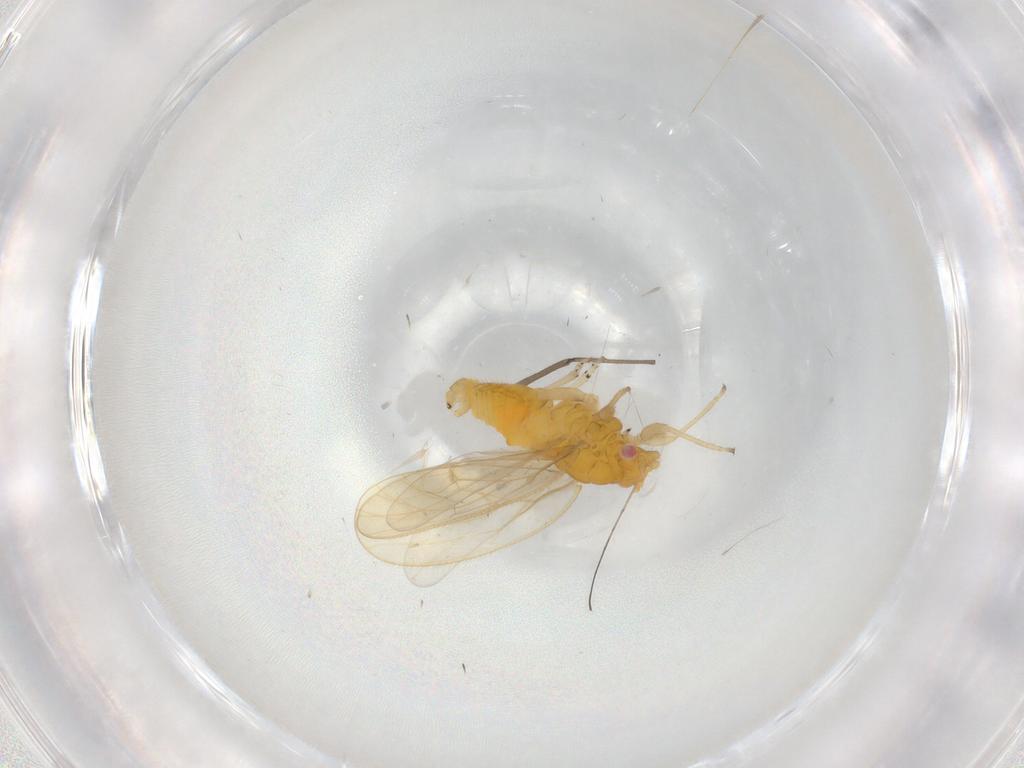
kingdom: Animalia
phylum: Arthropoda
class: Insecta
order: Hemiptera
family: Psyllidae
